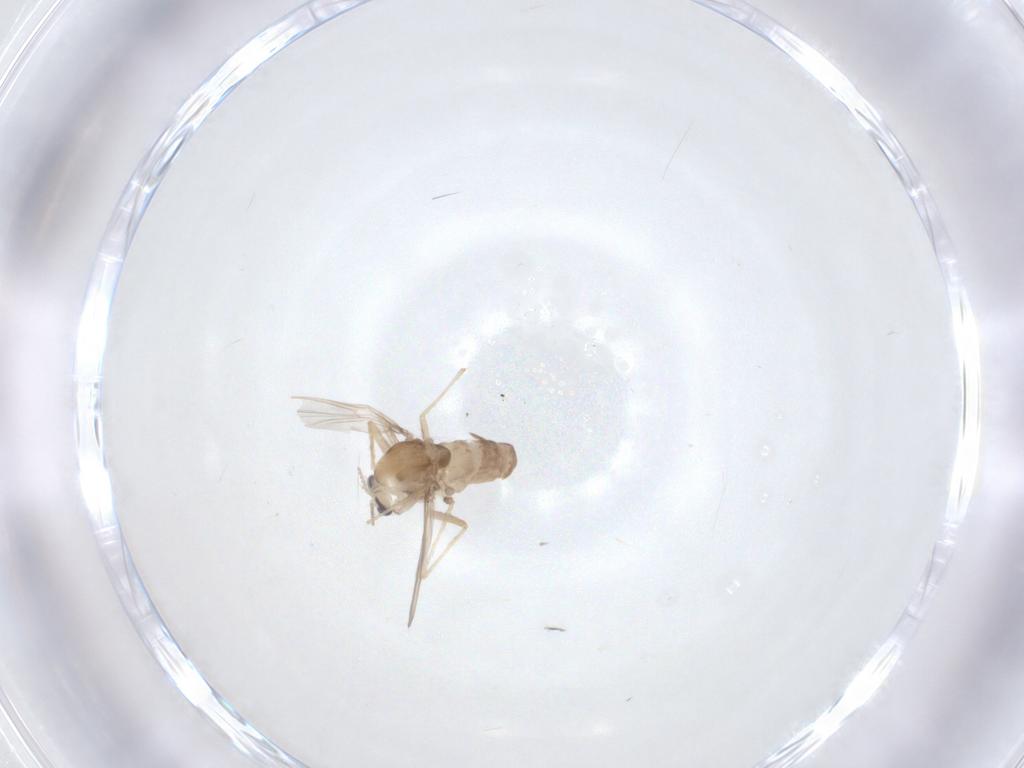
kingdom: Animalia
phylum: Arthropoda
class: Insecta
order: Diptera
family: Chironomidae
